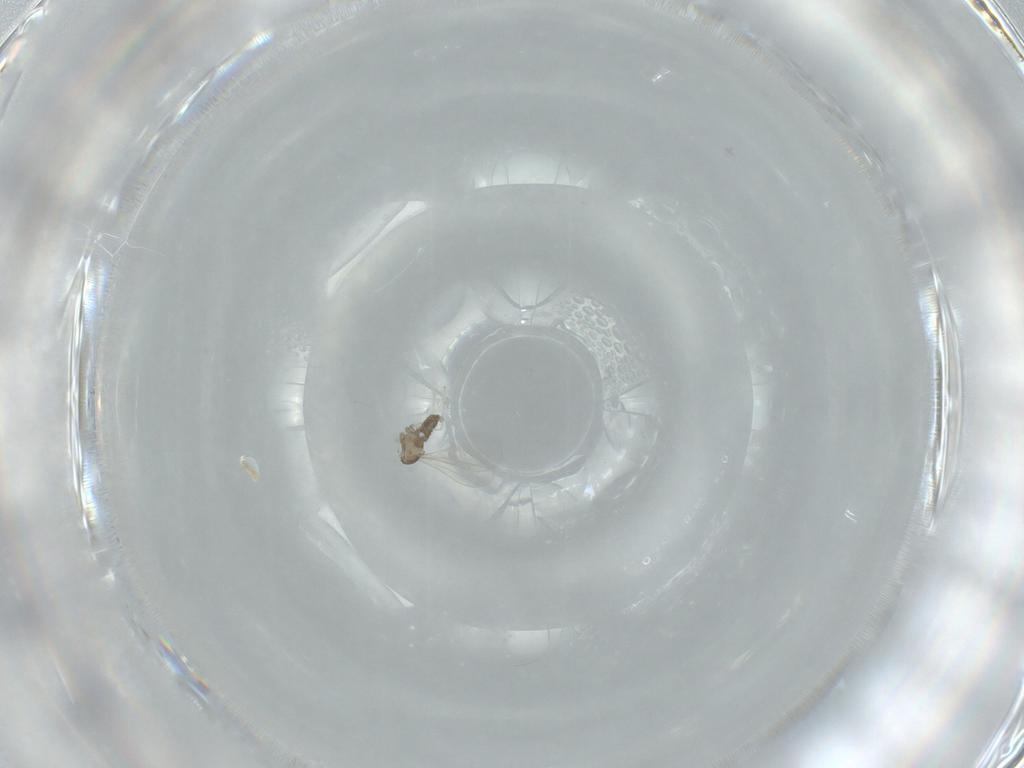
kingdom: Animalia
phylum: Arthropoda
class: Insecta
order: Diptera
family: Cecidomyiidae
